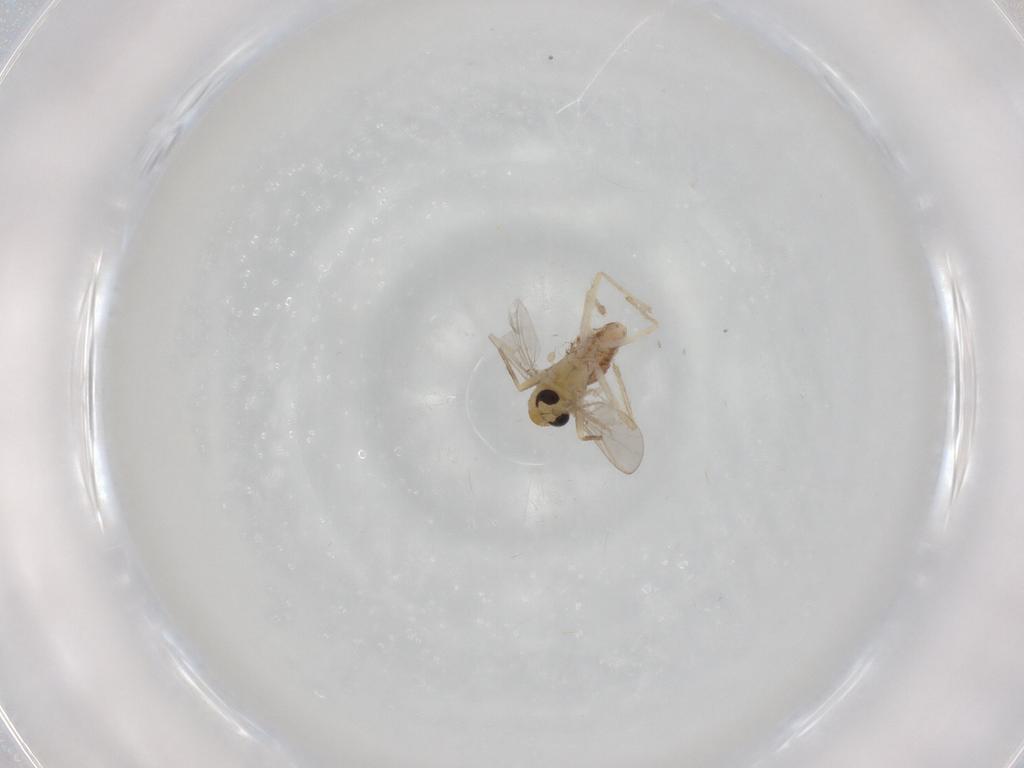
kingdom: Animalia
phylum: Arthropoda
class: Insecta
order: Diptera
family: Chironomidae
